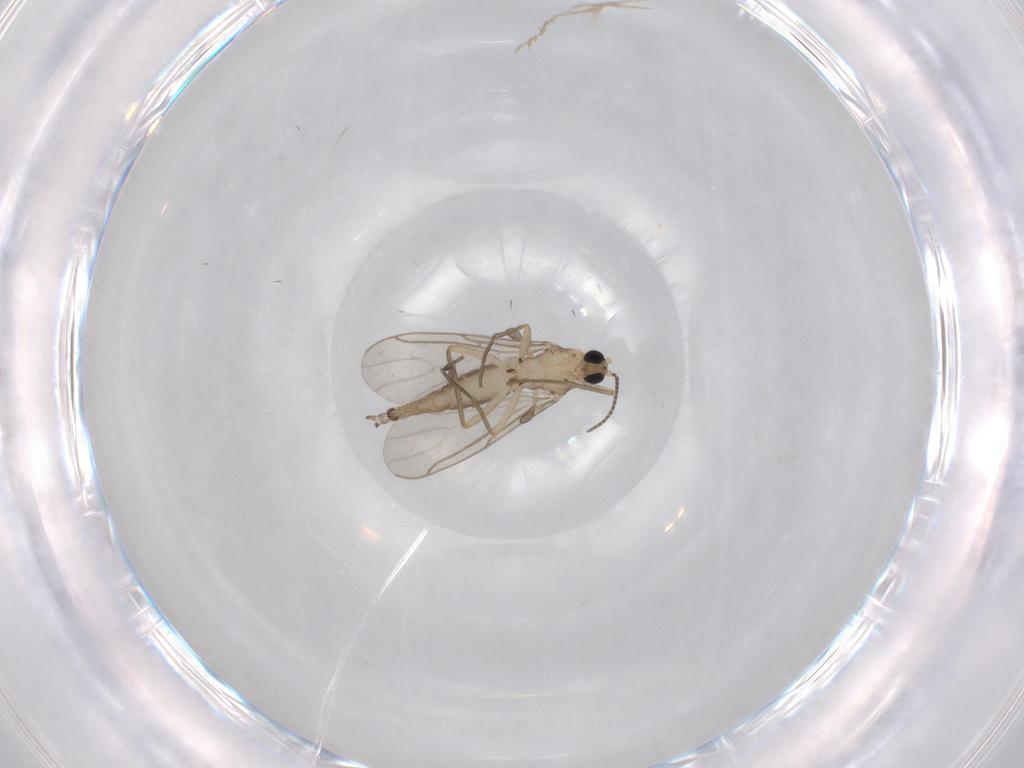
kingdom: Animalia
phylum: Arthropoda
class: Insecta
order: Diptera
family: Sciaridae
